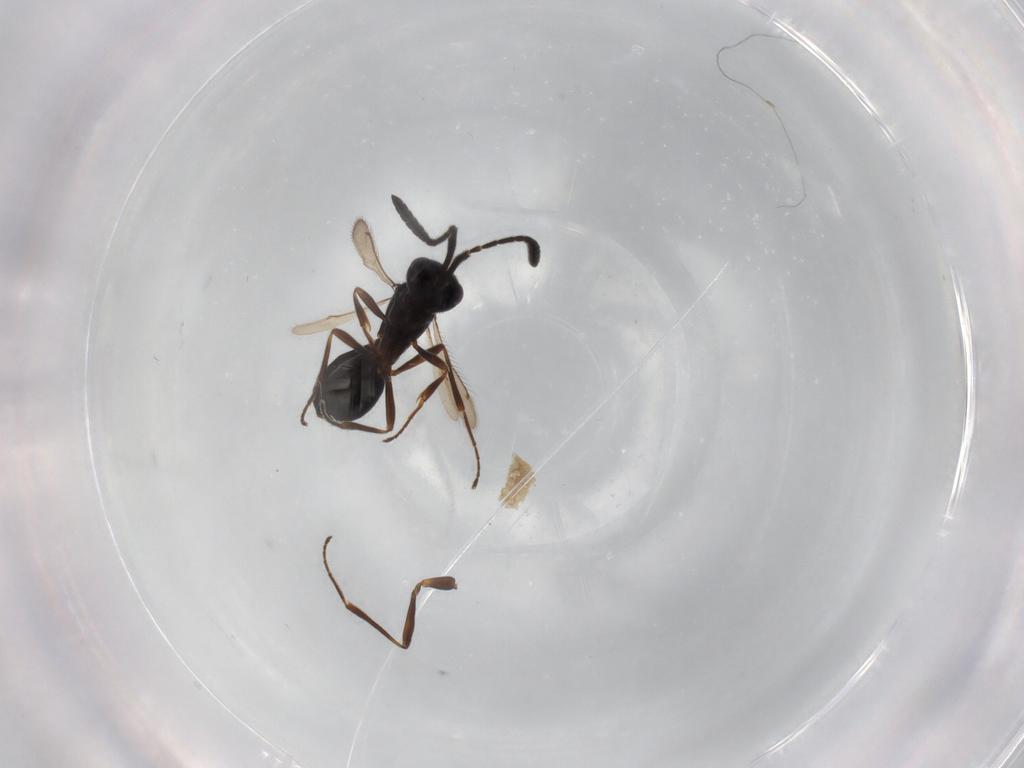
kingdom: Animalia
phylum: Arthropoda
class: Insecta
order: Hymenoptera
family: Scelionidae
